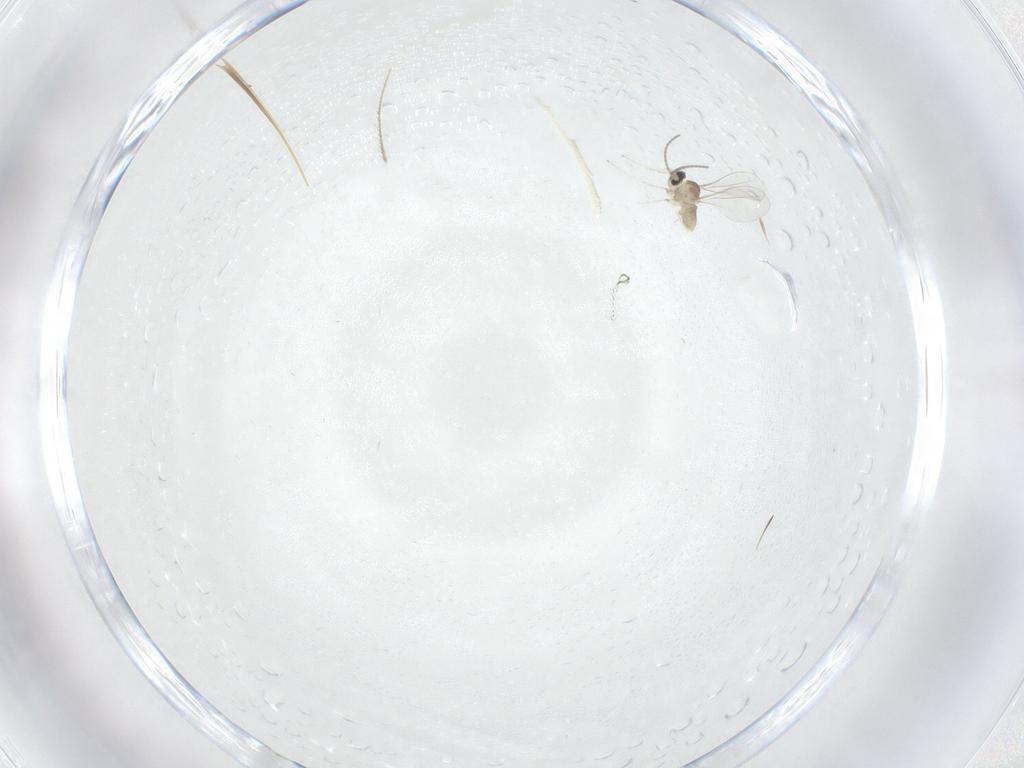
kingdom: Animalia
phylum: Arthropoda
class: Insecta
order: Diptera
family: Cecidomyiidae
